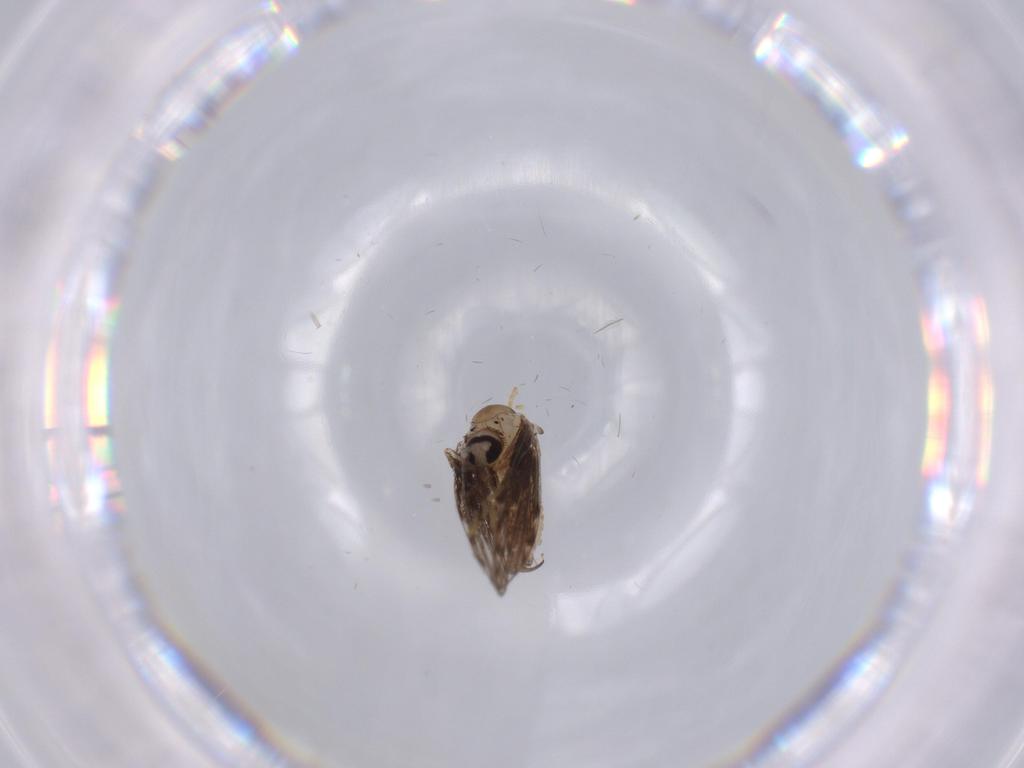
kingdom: Animalia
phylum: Arthropoda
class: Insecta
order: Diptera
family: Cecidomyiidae
